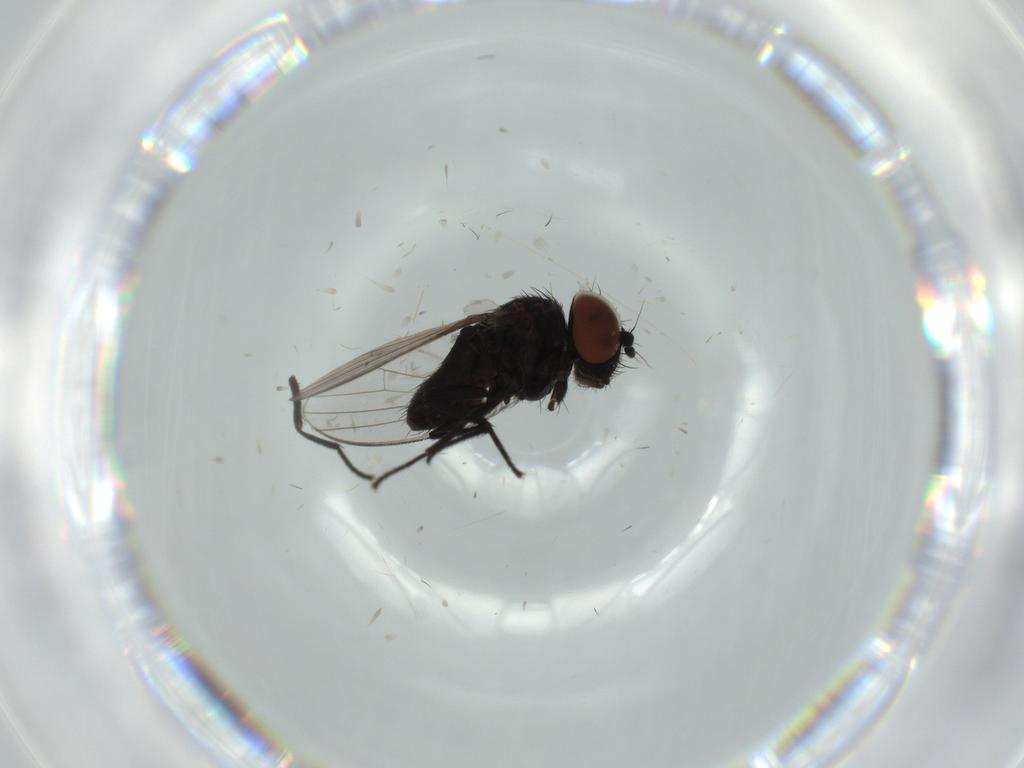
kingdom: Animalia
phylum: Arthropoda
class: Insecta
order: Diptera
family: Milichiidae
